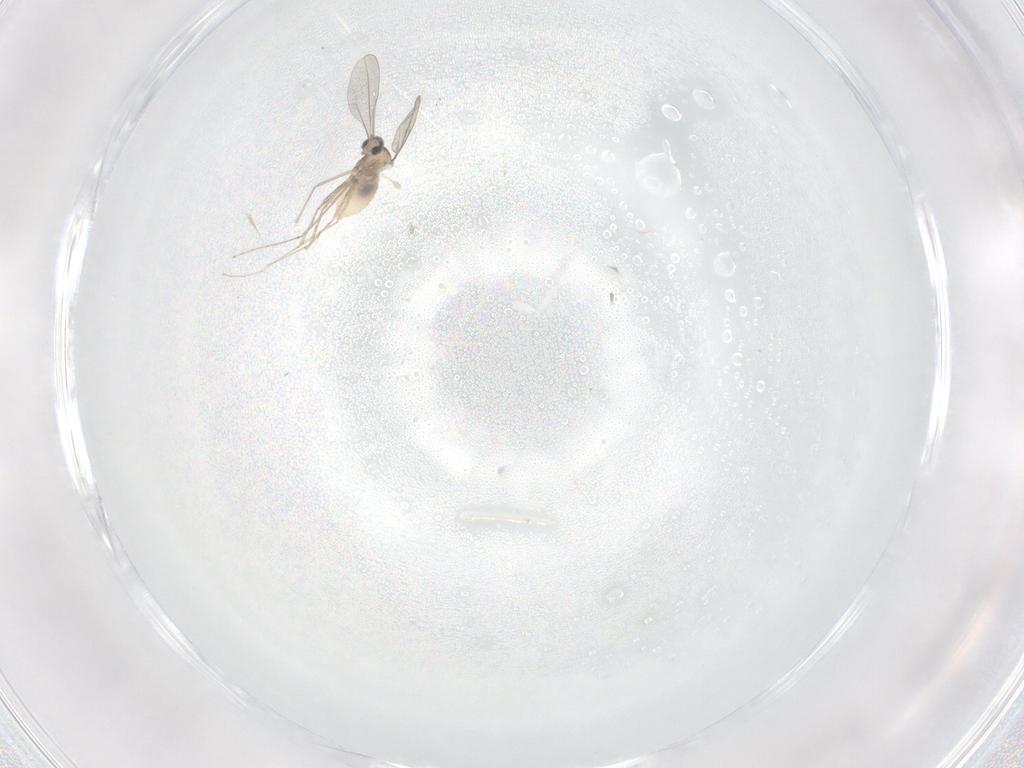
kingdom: Animalia
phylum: Arthropoda
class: Insecta
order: Diptera
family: Cecidomyiidae
